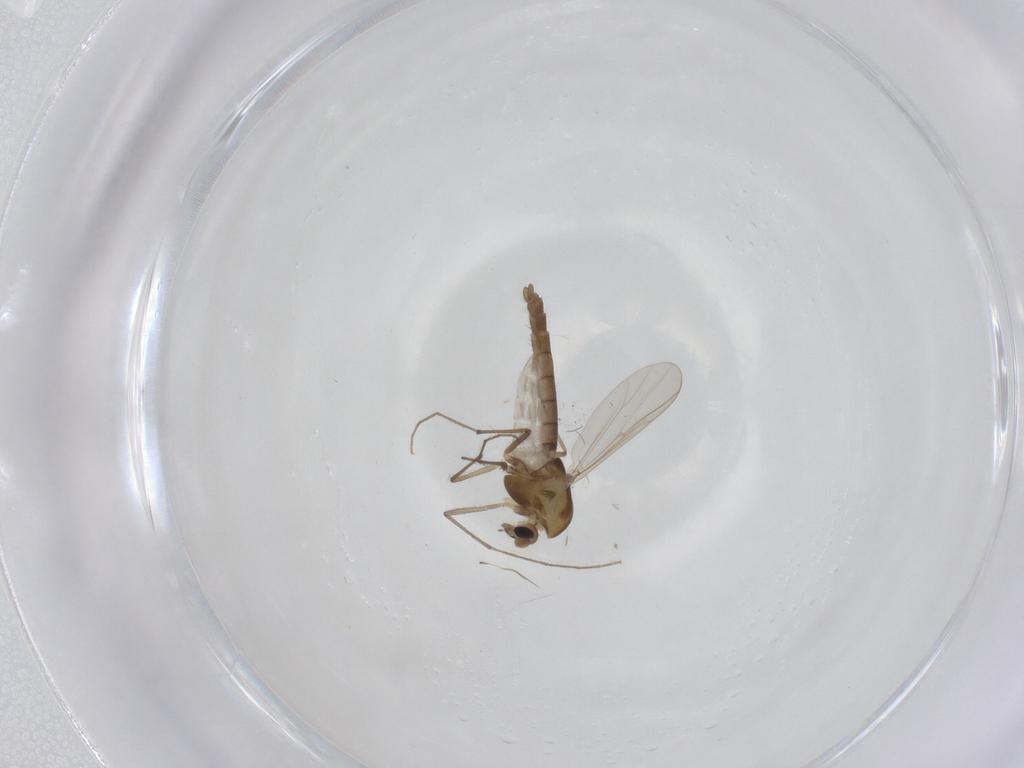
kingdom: Animalia
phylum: Arthropoda
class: Insecta
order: Diptera
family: Chironomidae
